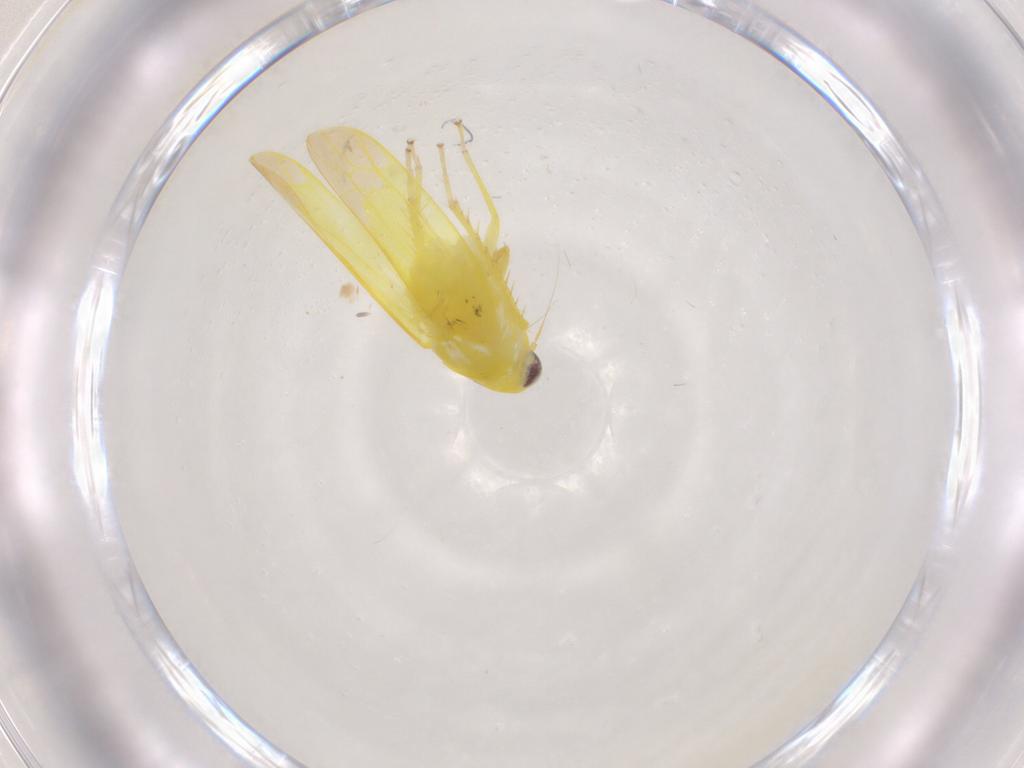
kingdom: Animalia
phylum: Arthropoda
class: Insecta
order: Hemiptera
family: Cicadellidae
